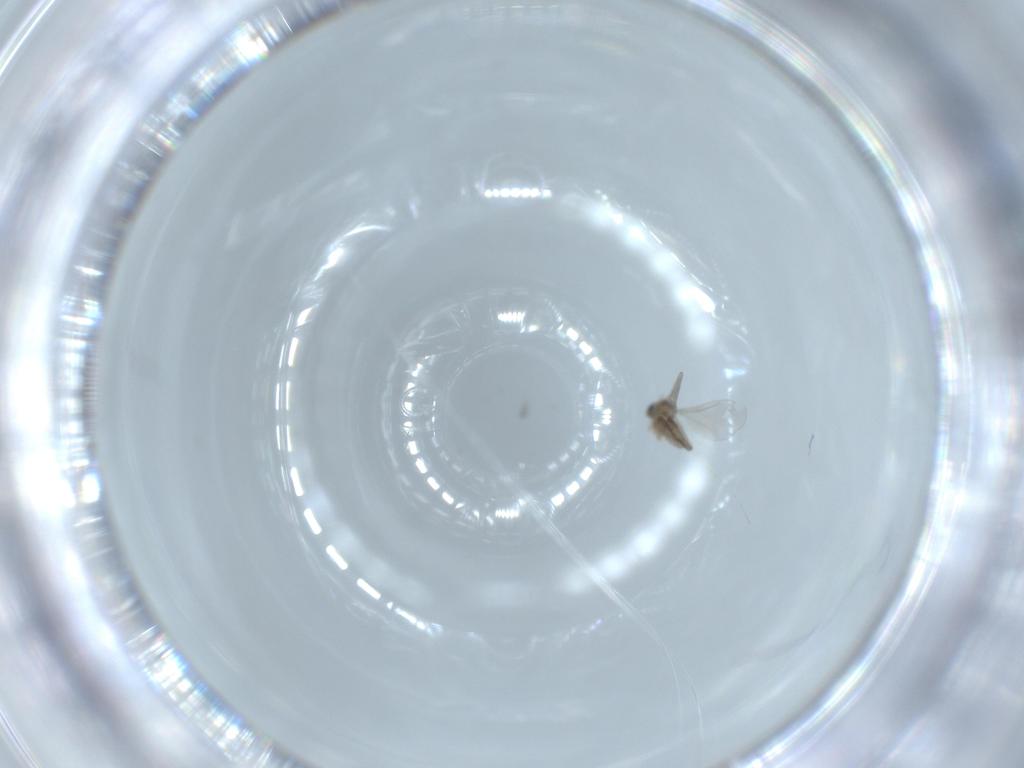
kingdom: Animalia
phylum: Arthropoda
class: Insecta
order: Diptera
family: Cecidomyiidae
